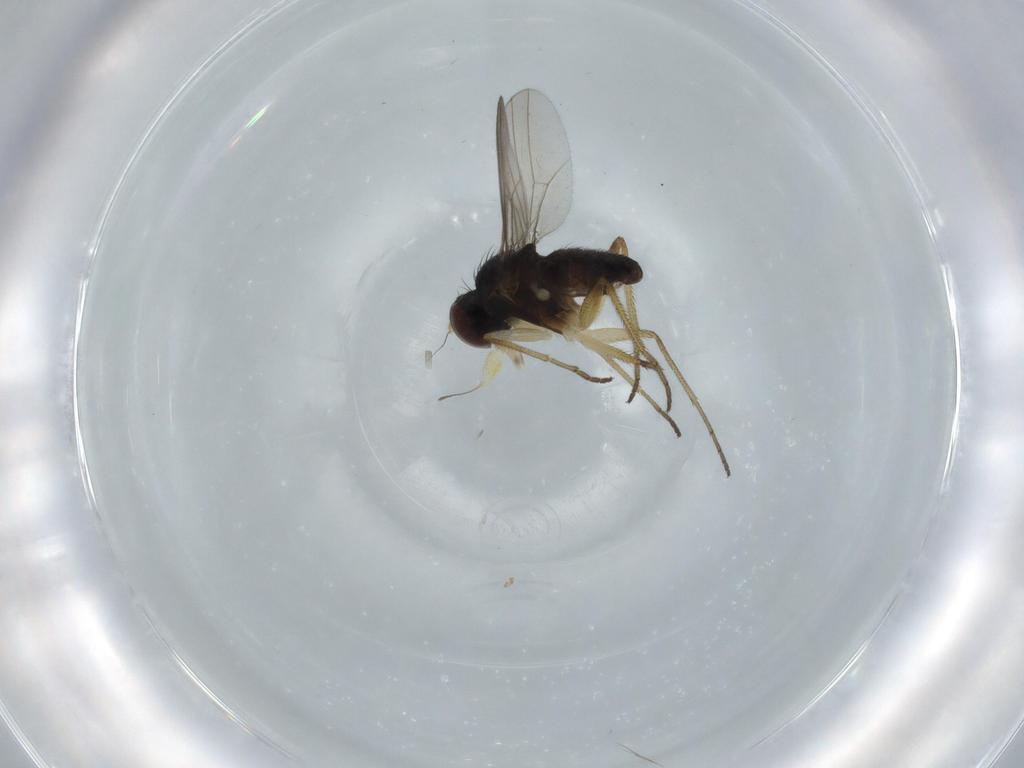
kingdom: Animalia
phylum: Arthropoda
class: Insecta
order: Diptera
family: Dolichopodidae
